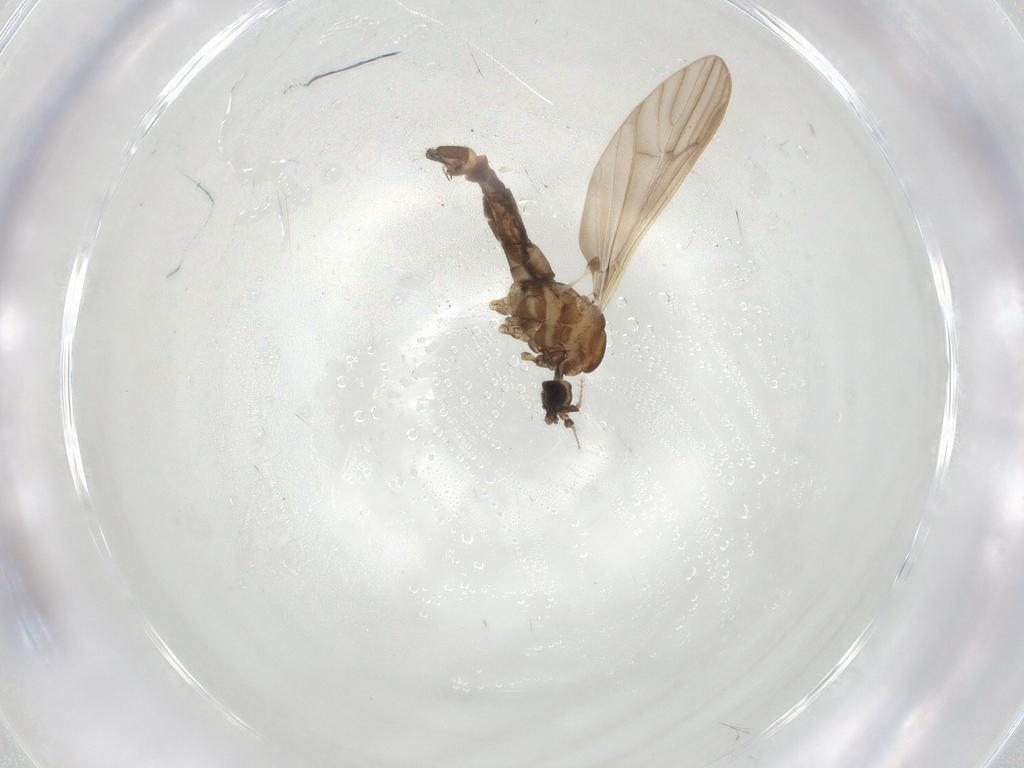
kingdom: Animalia
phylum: Arthropoda
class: Insecta
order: Diptera
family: Limoniidae
